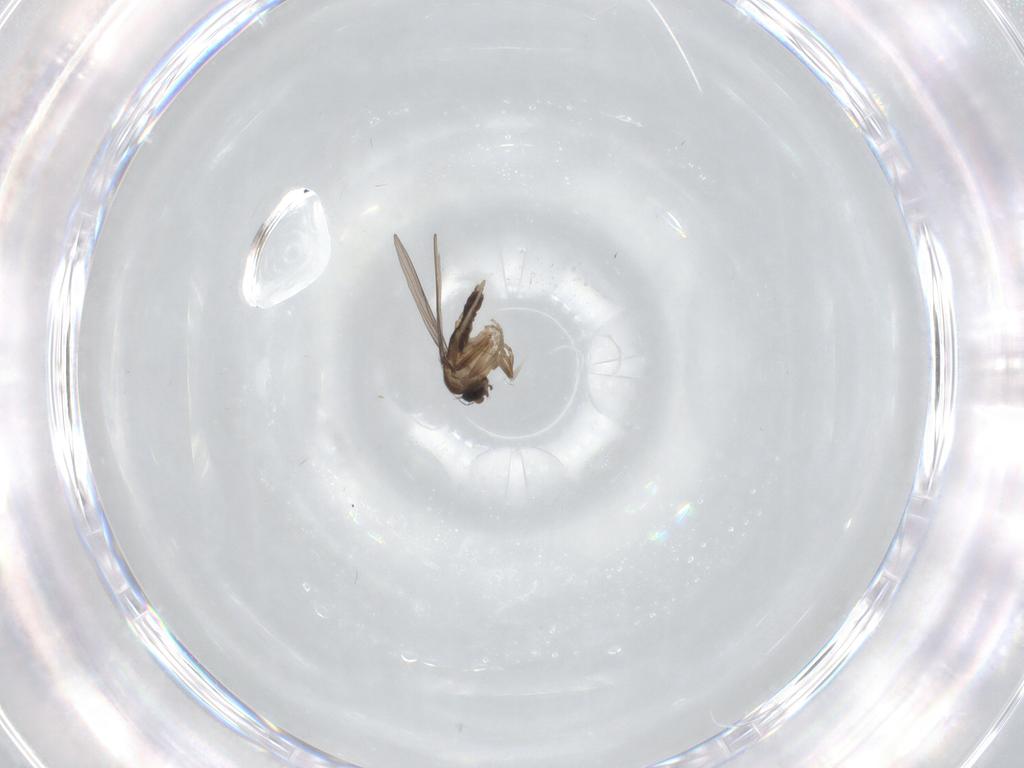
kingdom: Animalia
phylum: Arthropoda
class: Insecta
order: Diptera
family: Phoridae
